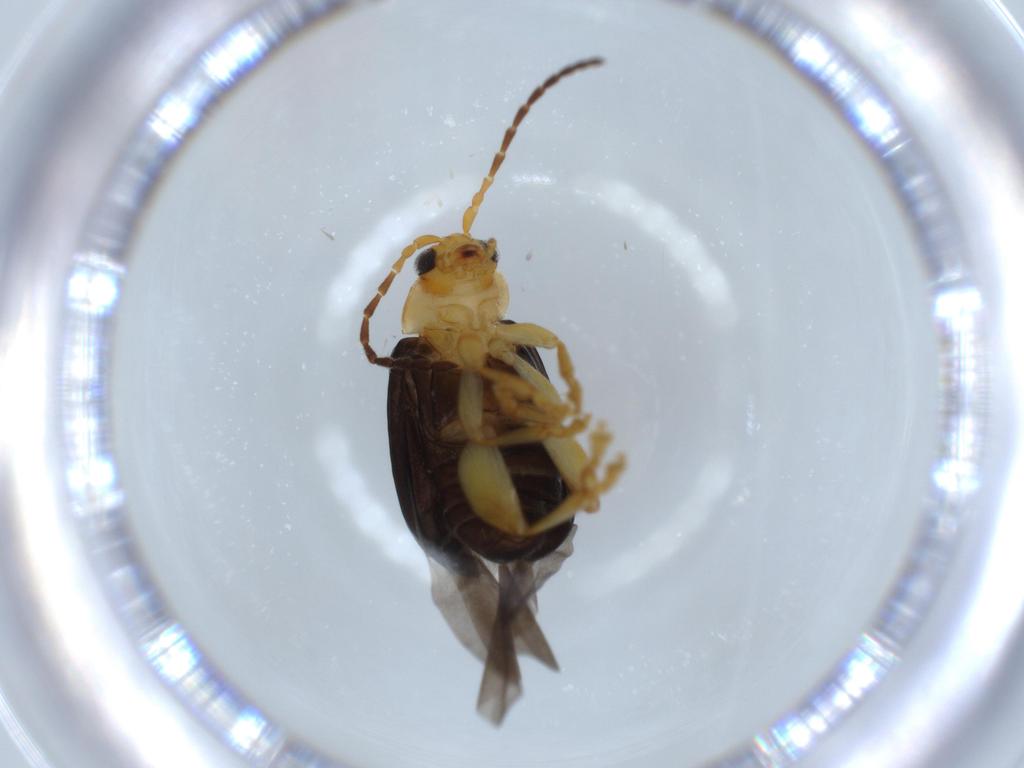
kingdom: Animalia
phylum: Arthropoda
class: Insecta
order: Coleoptera
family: Chrysomelidae
